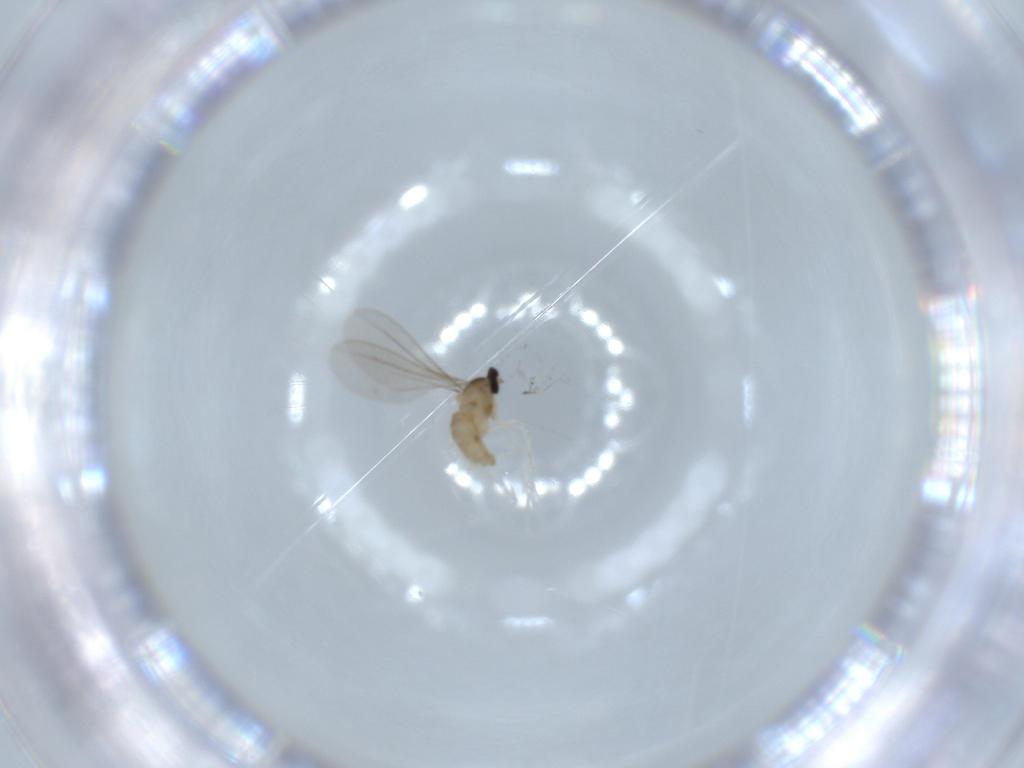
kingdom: Animalia
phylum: Arthropoda
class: Insecta
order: Diptera
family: Cecidomyiidae
